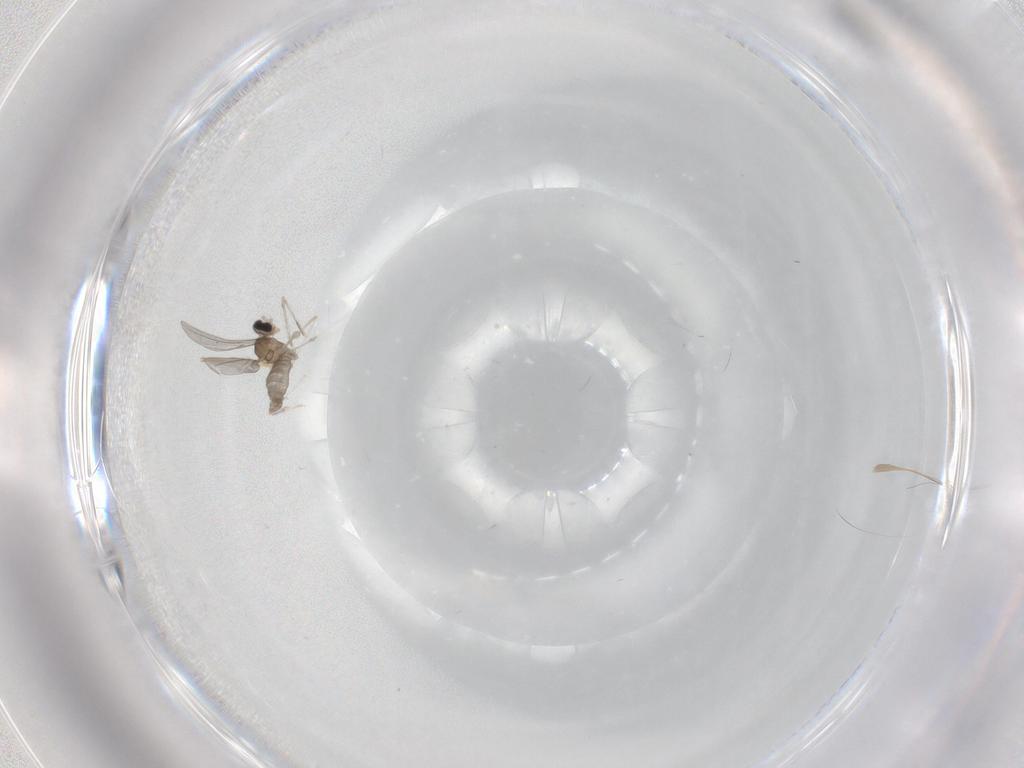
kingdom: Animalia
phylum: Arthropoda
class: Insecta
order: Diptera
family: Cecidomyiidae
